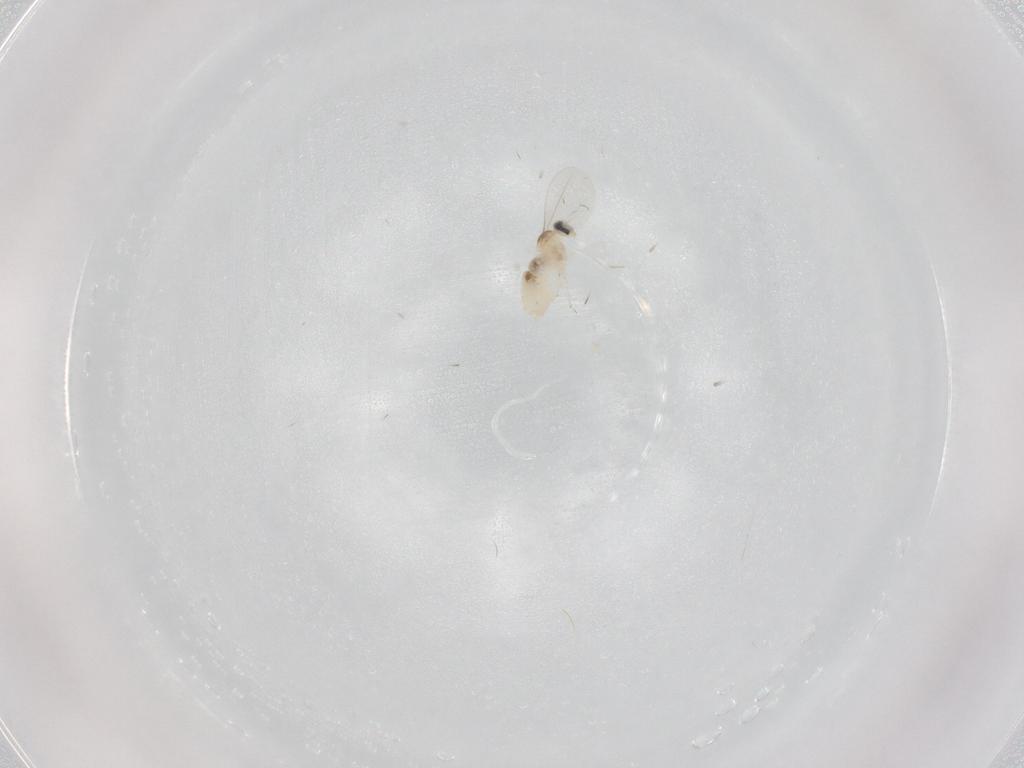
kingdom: Animalia
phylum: Arthropoda
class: Insecta
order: Diptera
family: Cecidomyiidae
